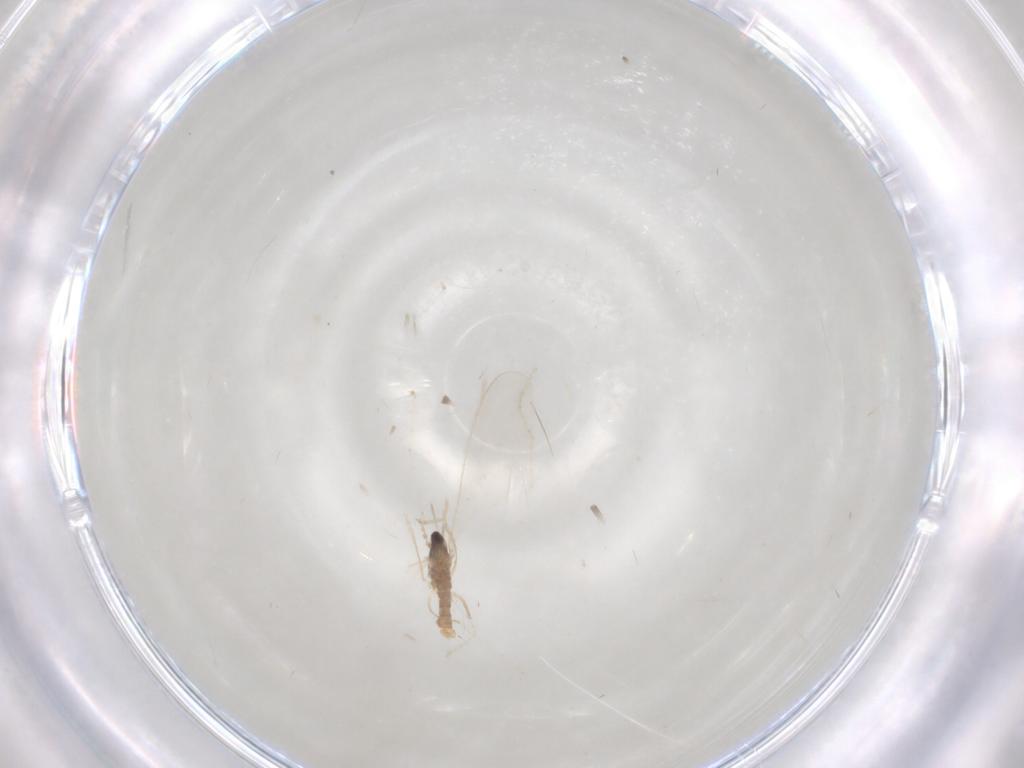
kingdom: Animalia
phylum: Arthropoda
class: Insecta
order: Diptera
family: Cecidomyiidae
